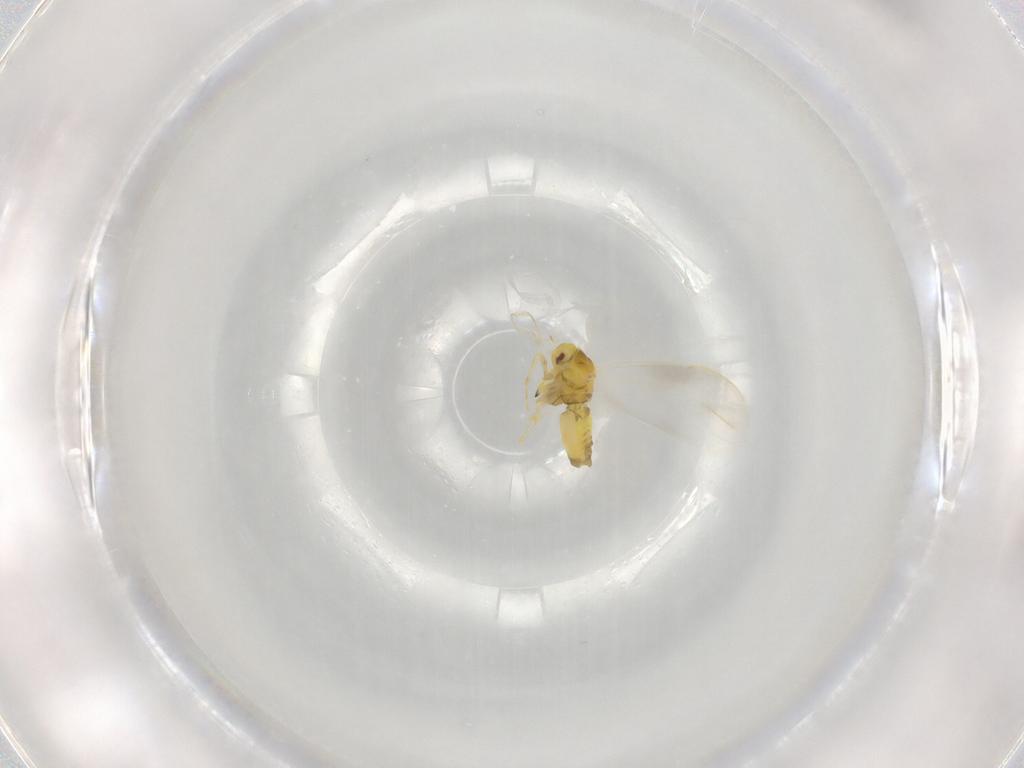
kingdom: Animalia
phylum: Arthropoda
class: Insecta
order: Hemiptera
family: Aleyrodidae
